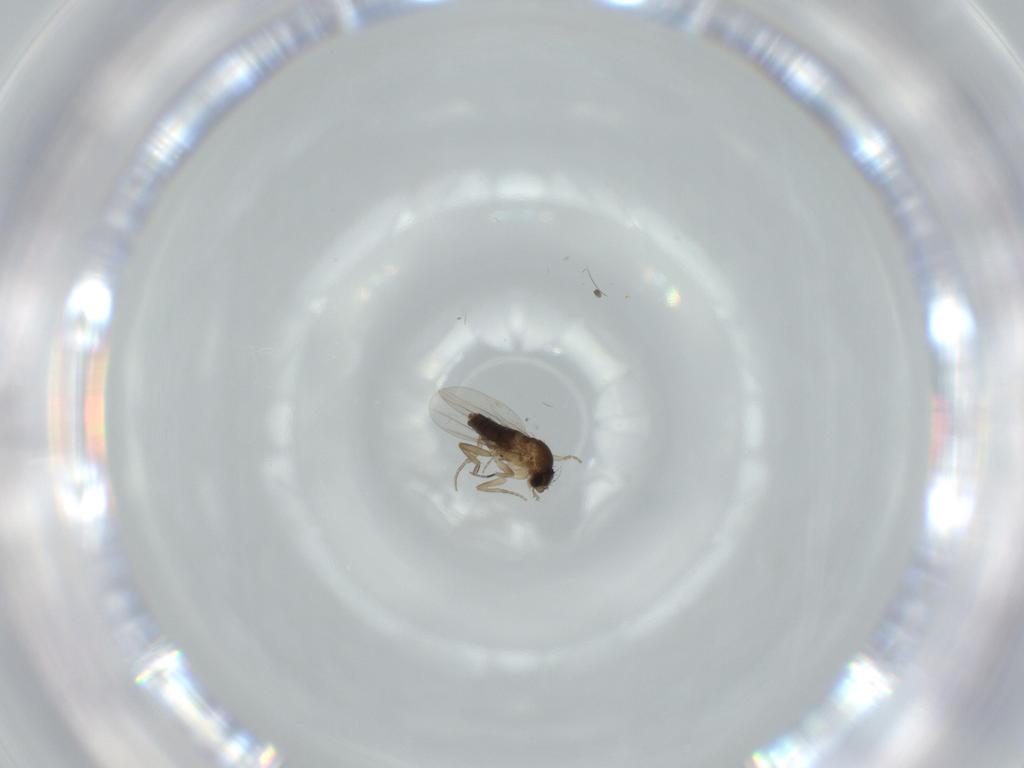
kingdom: Animalia
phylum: Arthropoda
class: Insecta
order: Diptera
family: Phoridae
